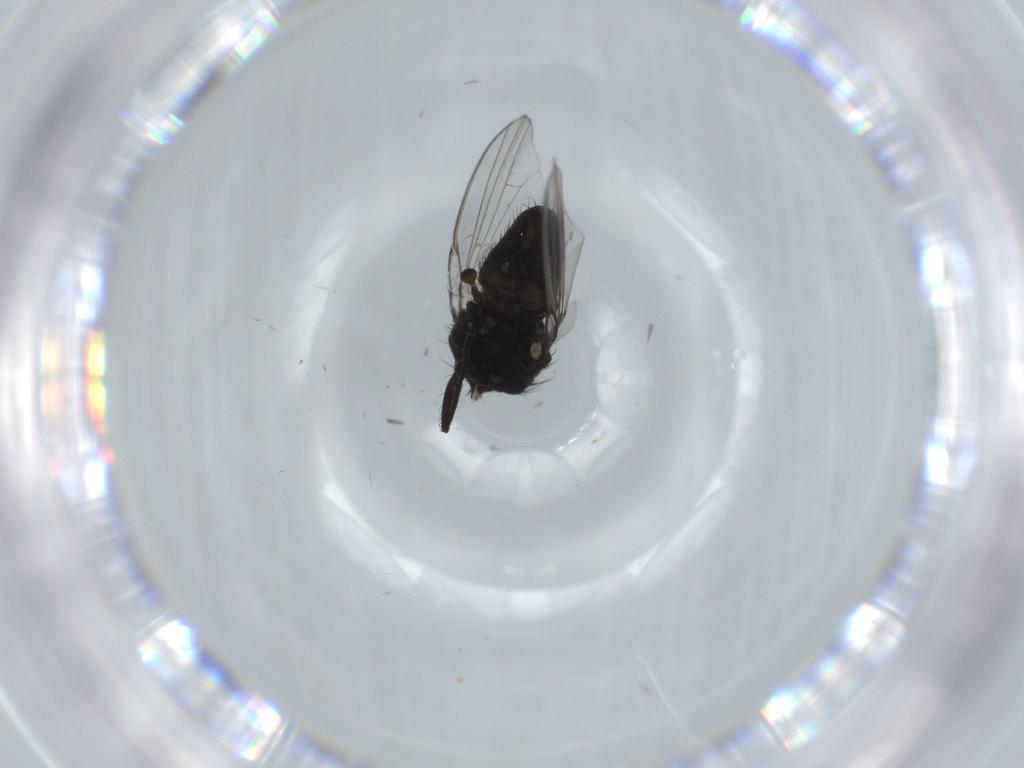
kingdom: Animalia
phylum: Arthropoda
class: Insecta
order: Diptera
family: Milichiidae
